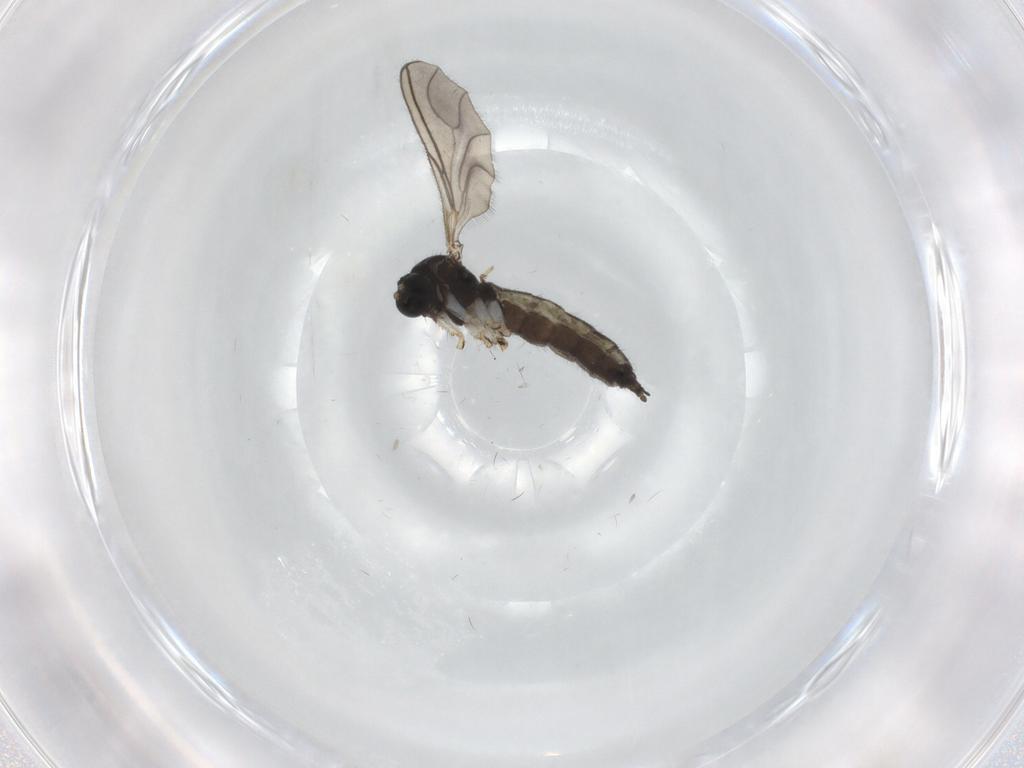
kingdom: Animalia
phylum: Arthropoda
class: Insecta
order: Diptera
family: Sciaridae
